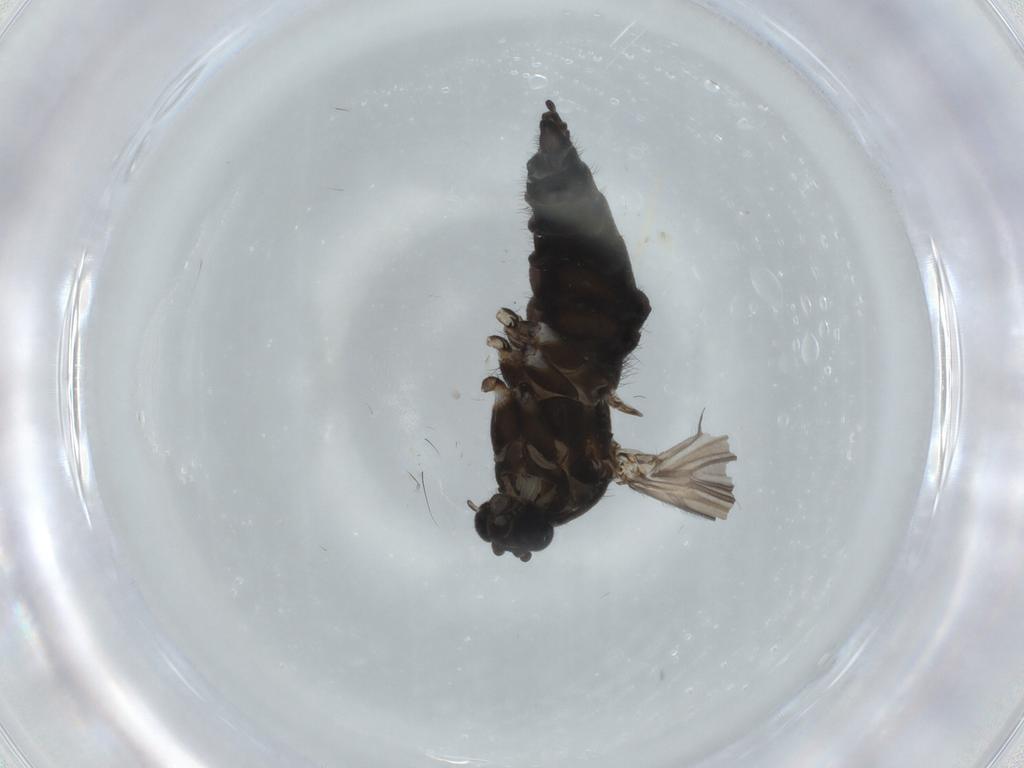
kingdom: Animalia
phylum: Arthropoda
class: Insecta
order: Diptera
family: Sciaridae
